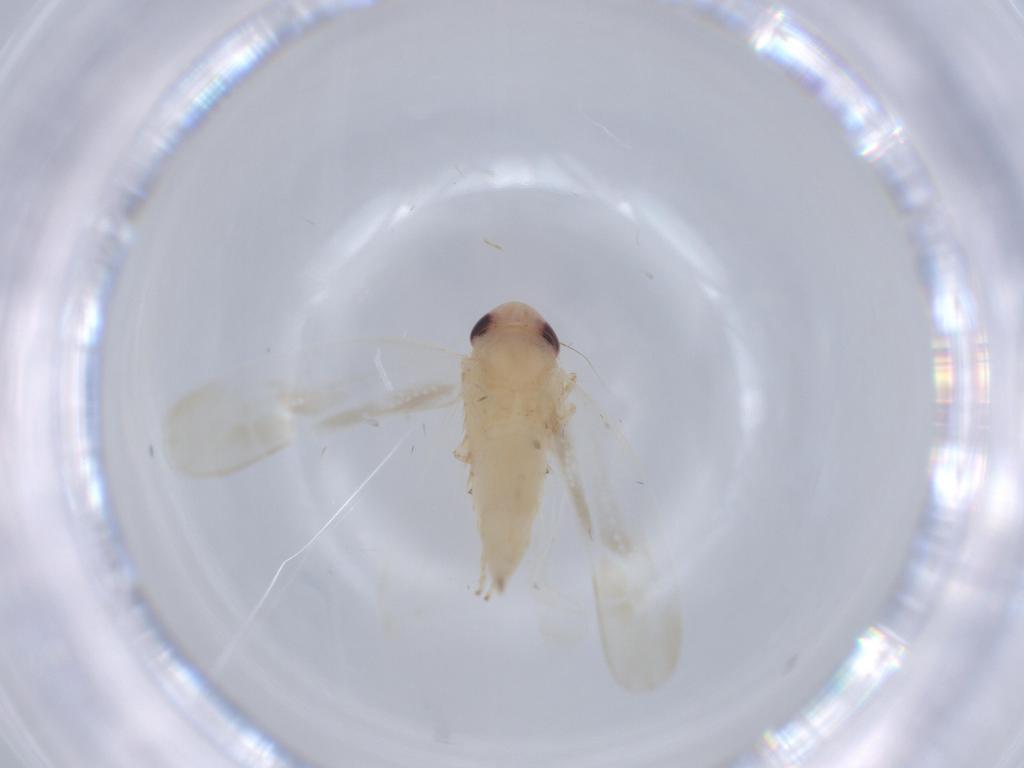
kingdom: Animalia
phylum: Arthropoda
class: Insecta
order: Hemiptera
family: Cicadellidae
